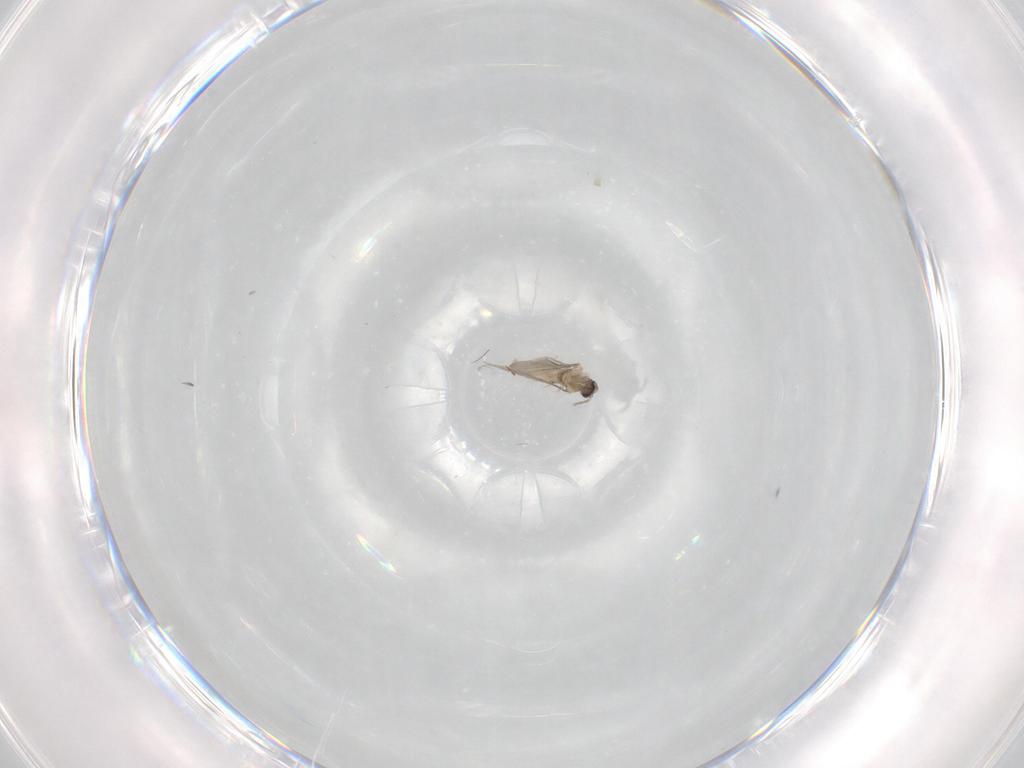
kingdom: Animalia
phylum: Arthropoda
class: Insecta
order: Diptera
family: Cecidomyiidae
